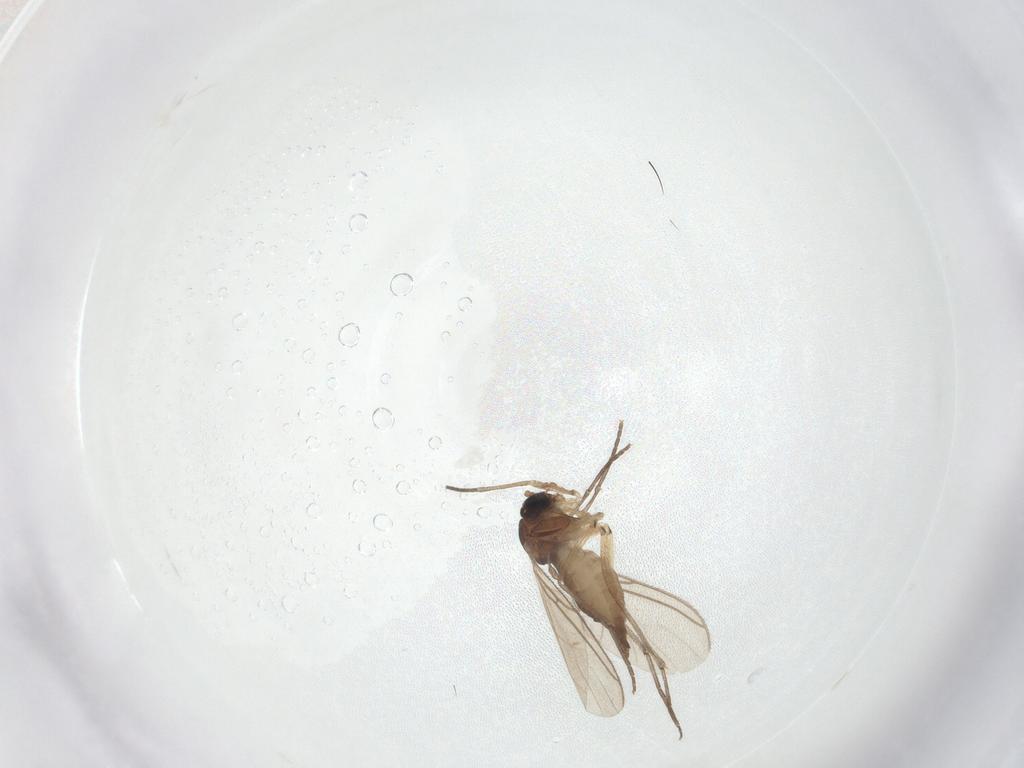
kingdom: Animalia
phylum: Arthropoda
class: Insecta
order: Diptera
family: Sciaridae
